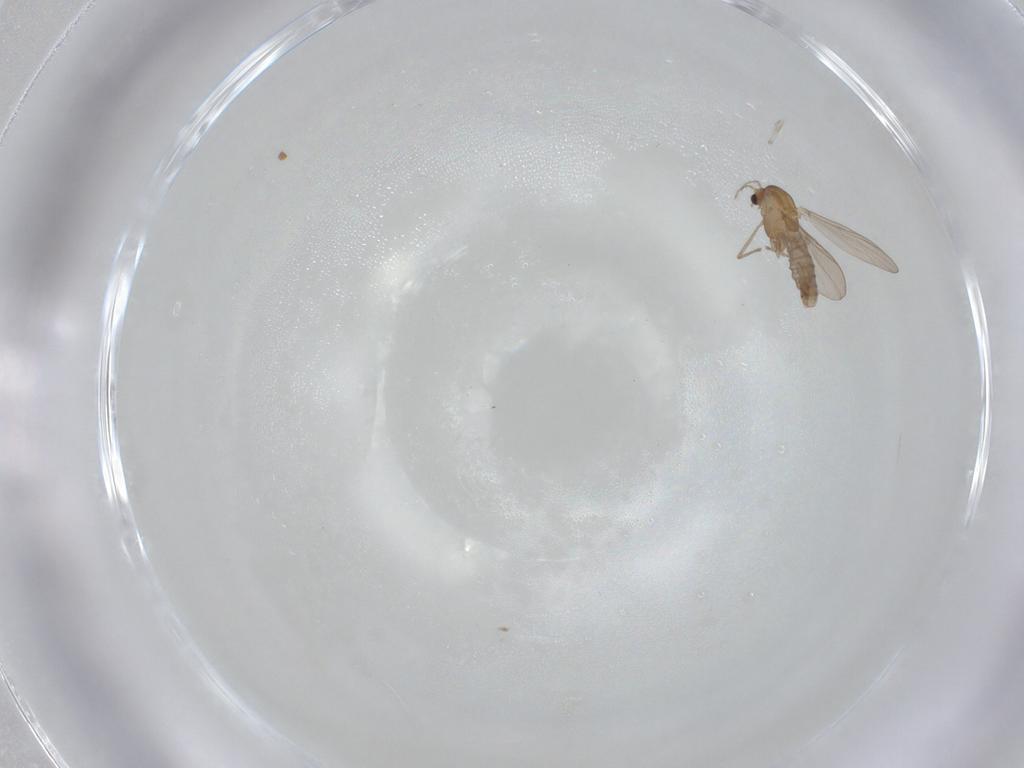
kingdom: Animalia
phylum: Arthropoda
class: Insecta
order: Diptera
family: Chironomidae
